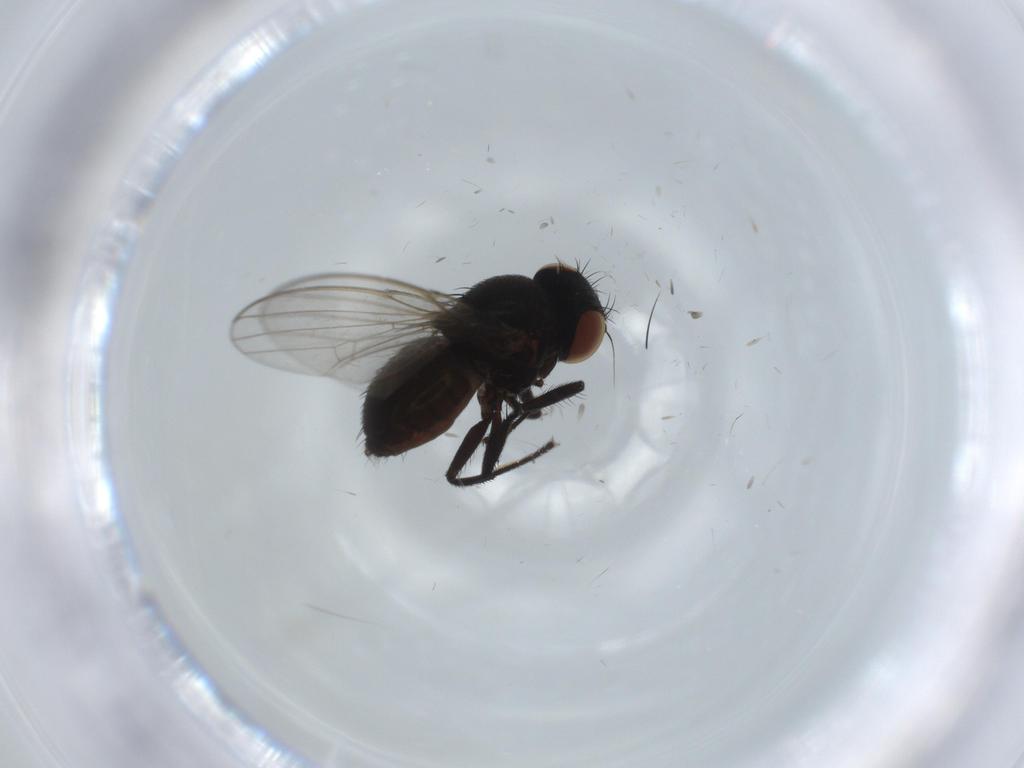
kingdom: Animalia
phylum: Arthropoda
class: Insecta
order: Diptera
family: Milichiidae
